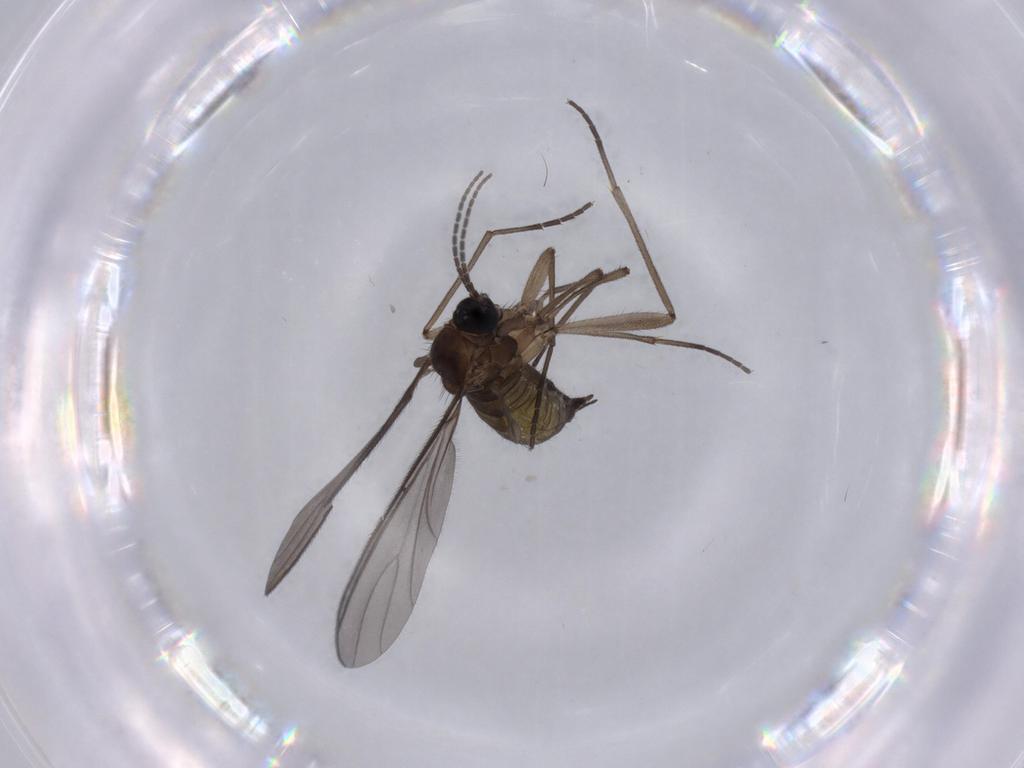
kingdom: Animalia
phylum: Arthropoda
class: Insecta
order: Diptera
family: Sciaridae
